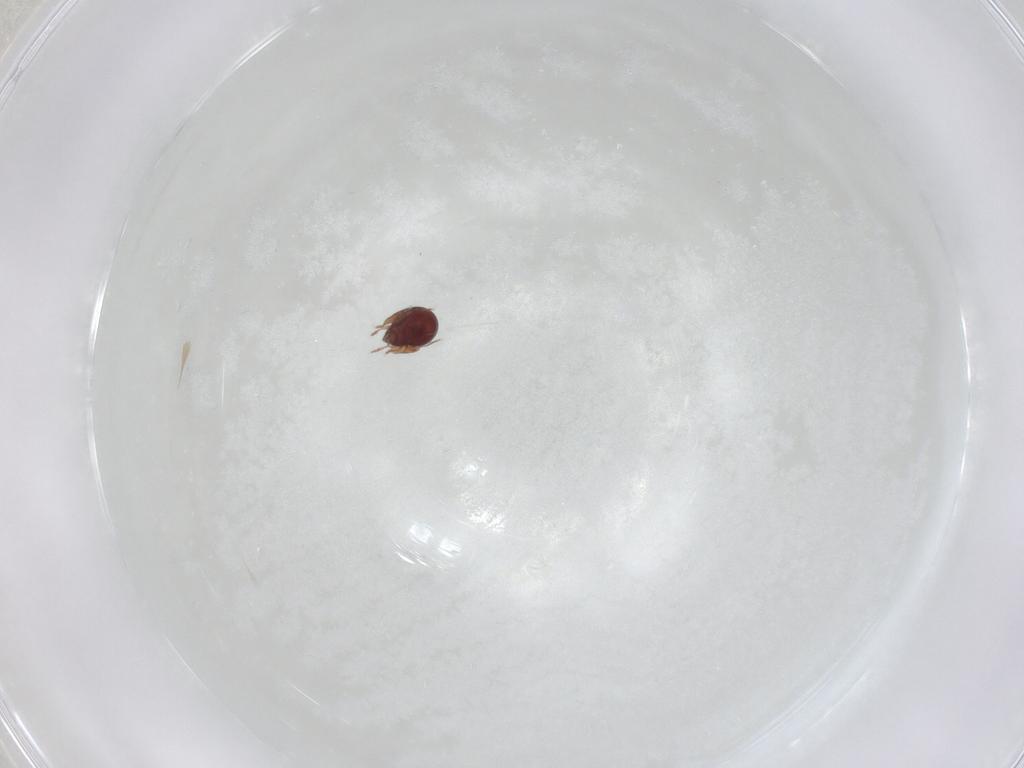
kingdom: Animalia
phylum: Arthropoda
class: Arachnida
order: Sarcoptiformes
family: Galumnidae
